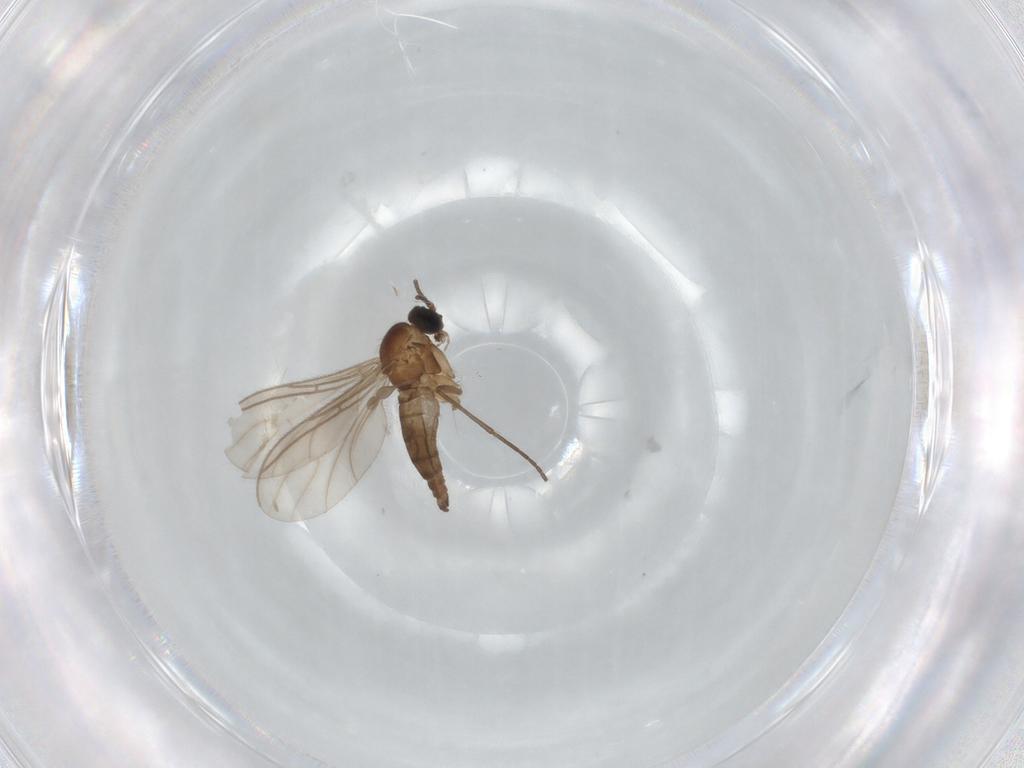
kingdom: Animalia
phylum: Arthropoda
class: Insecta
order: Diptera
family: Sciaridae
